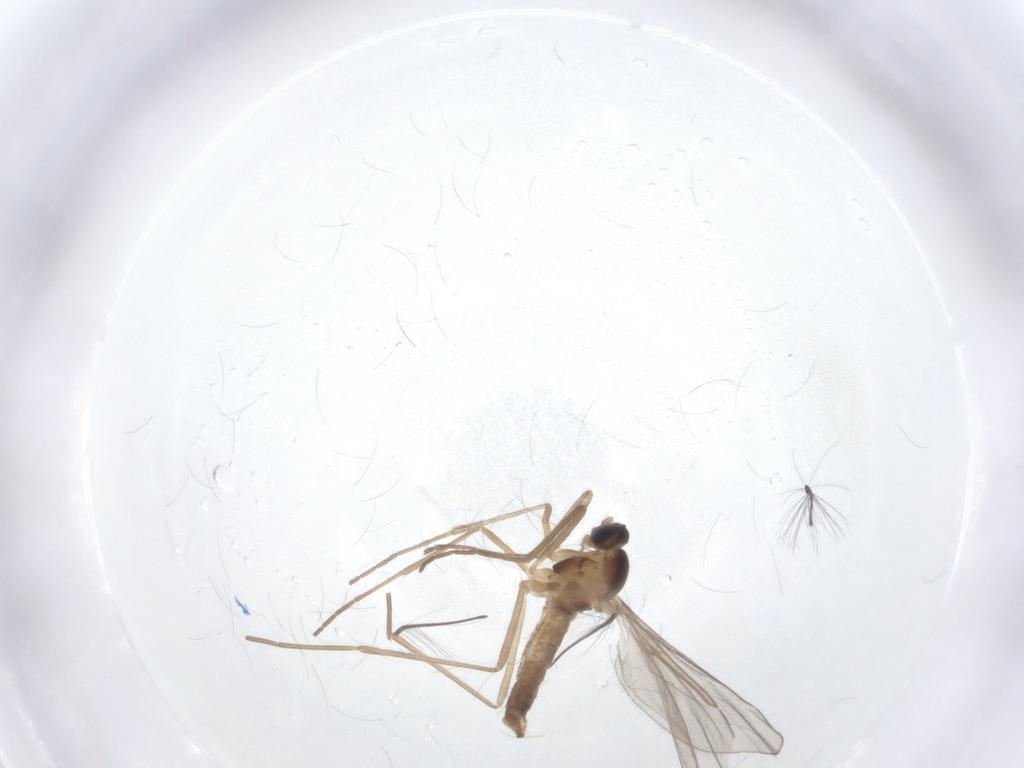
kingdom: Animalia
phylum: Arthropoda
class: Insecta
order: Diptera
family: Cecidomyiidae
